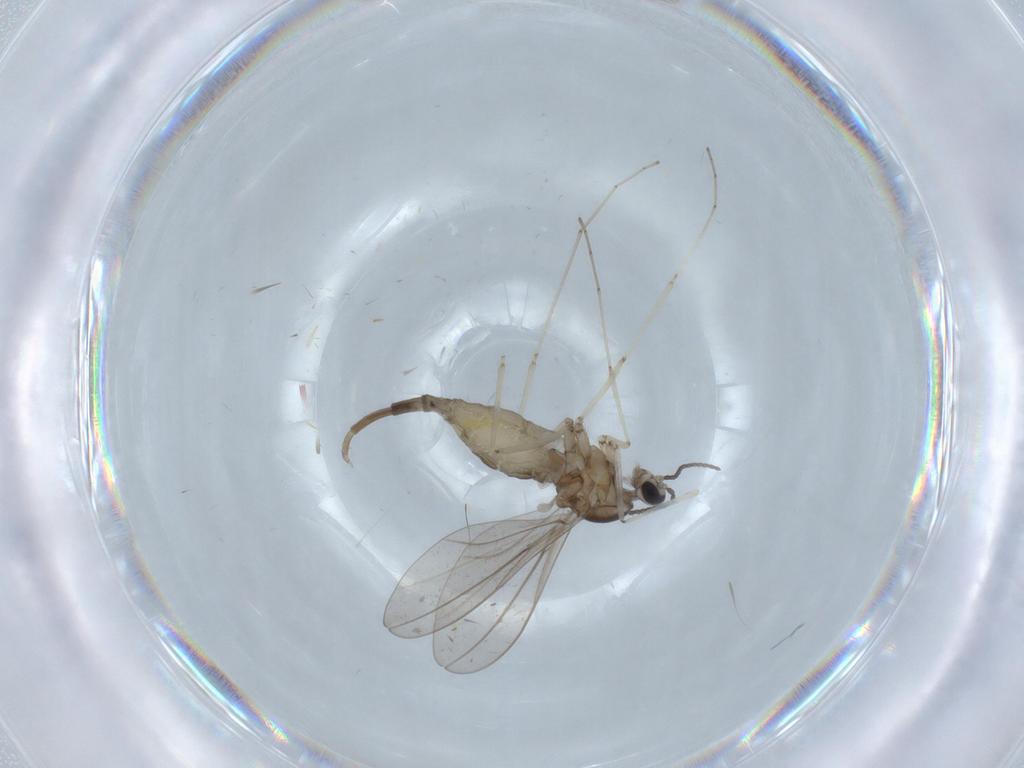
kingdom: Animalia
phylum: Arthropoda
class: Insecta
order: Diptera
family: Cecidomyiidae
